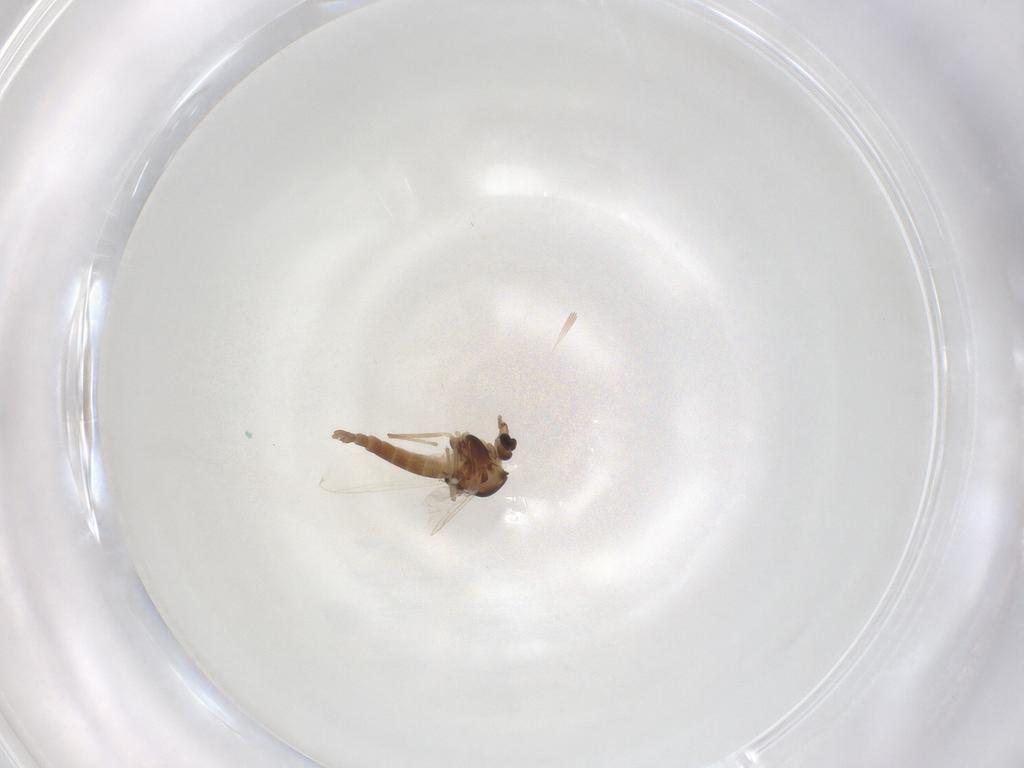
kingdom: Animalia
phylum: Arthropoda
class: Insecta
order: Diptera
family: Chironomidae
